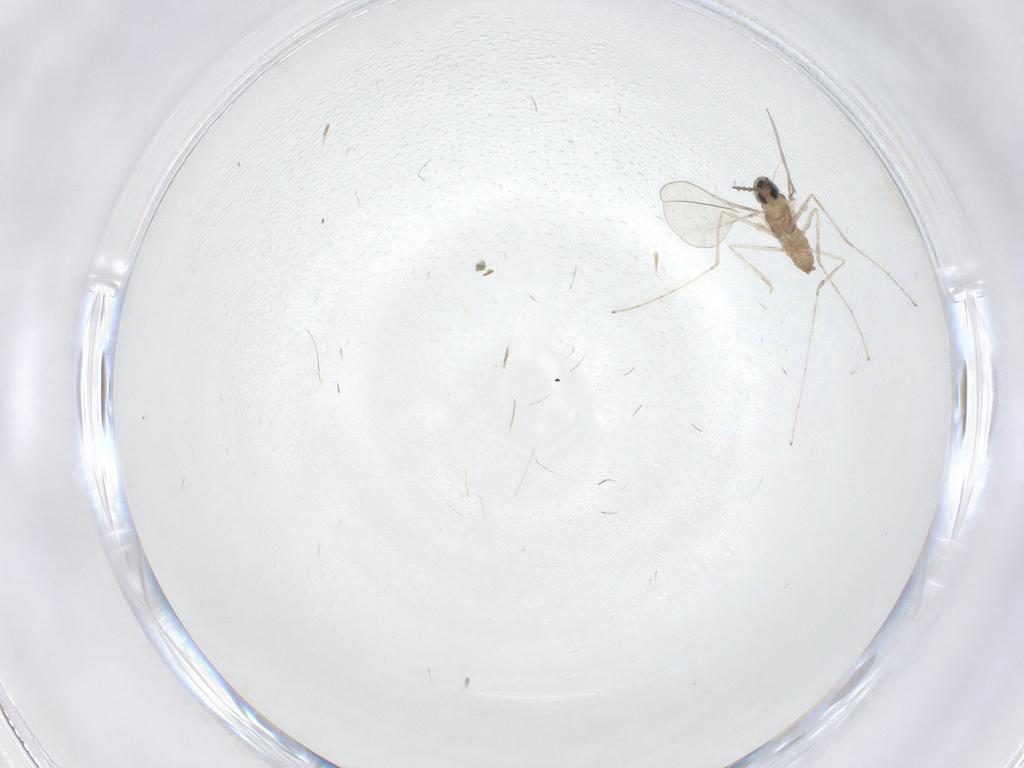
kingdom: Animalia
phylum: Arthropoda
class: Insecta
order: Diptera
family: Cecidomyiidae
